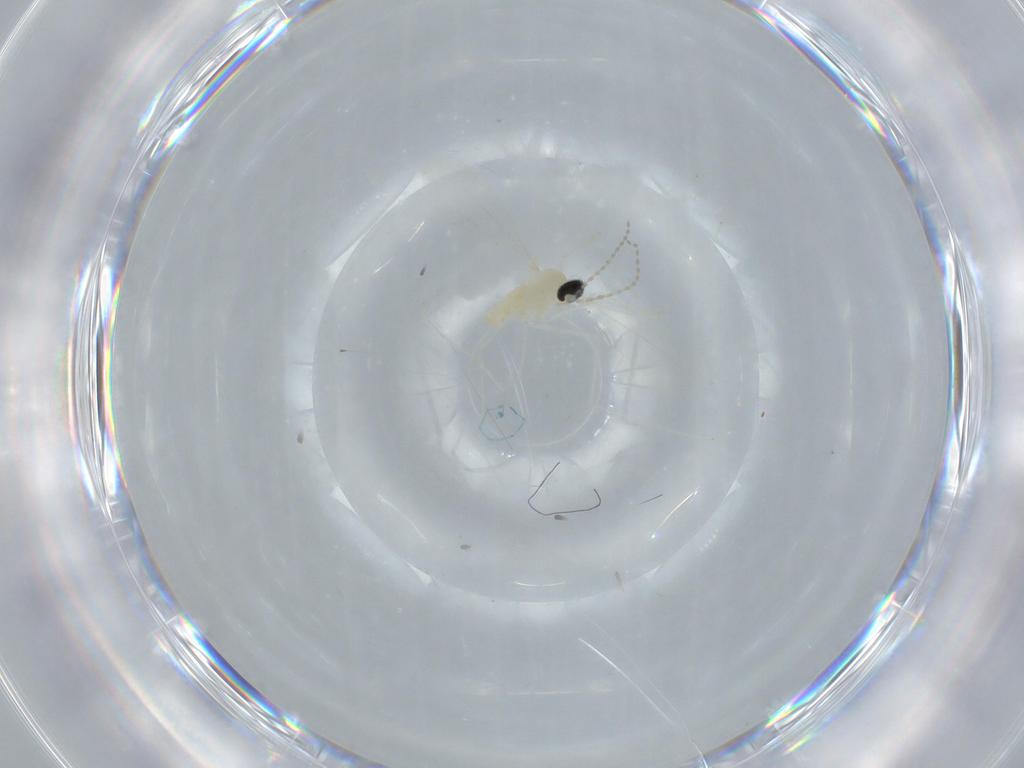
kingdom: Animalia
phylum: Arthropoda
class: Insecta
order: Diptera
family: Cecidomyiidae
